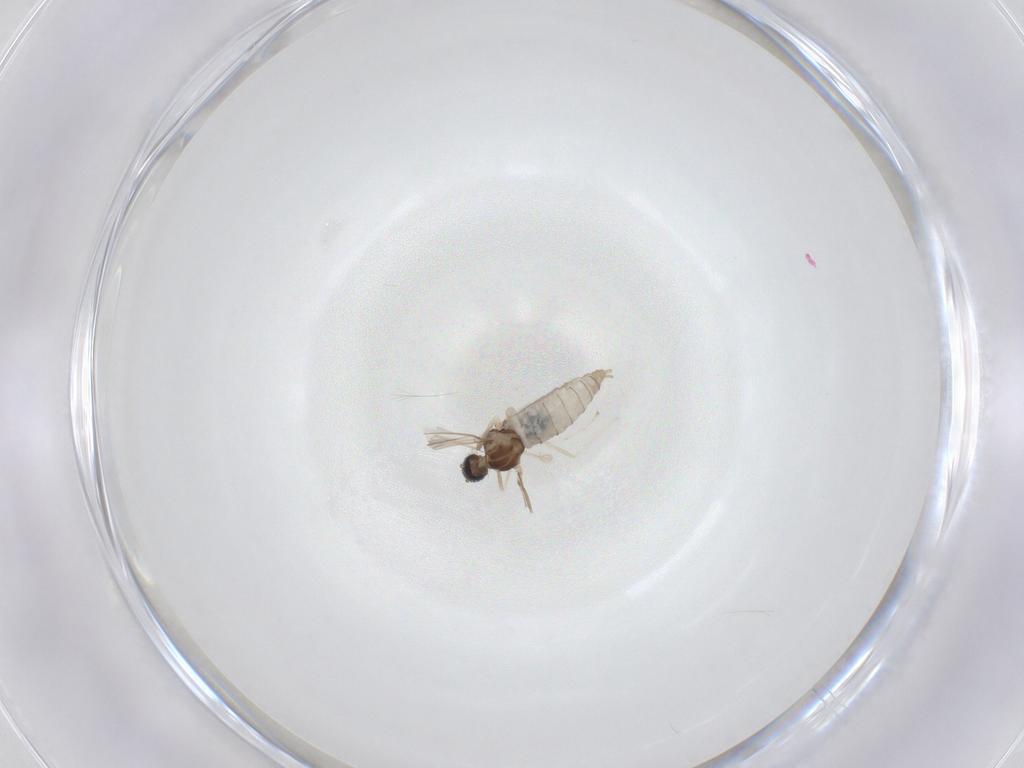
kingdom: Animalia
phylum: Arthropoda
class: Insecta
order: Diptera
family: Cecidomyiidae
